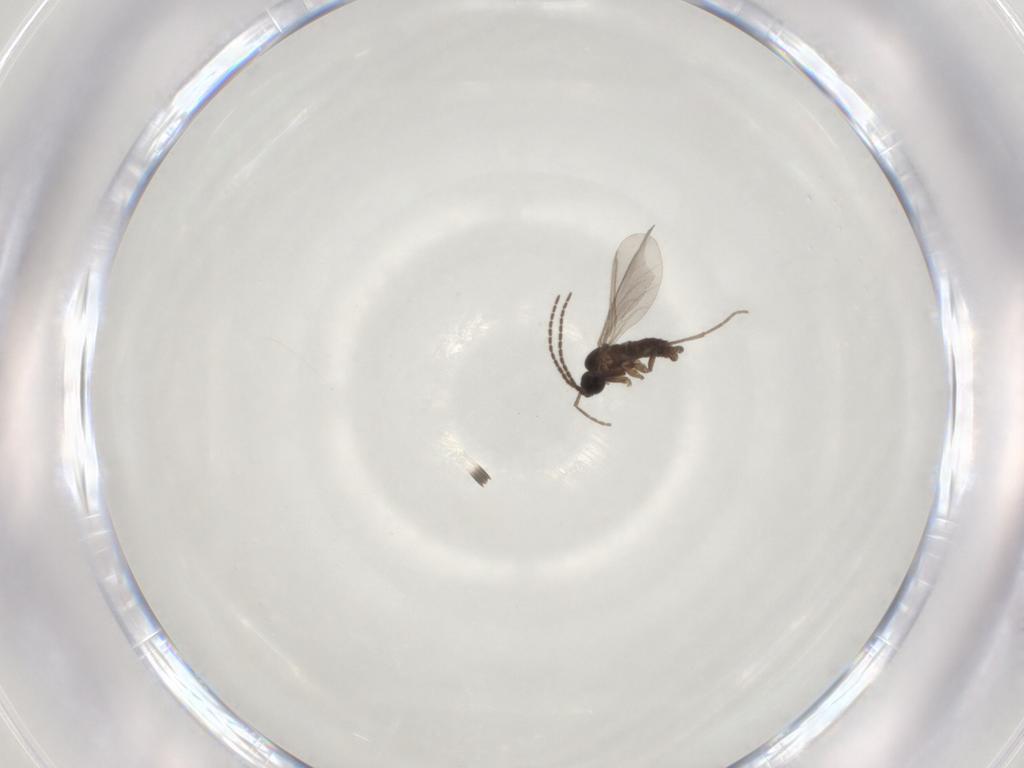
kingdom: Animalia
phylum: Arthropoda
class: Insecta
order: Diptera
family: Sciaridae
